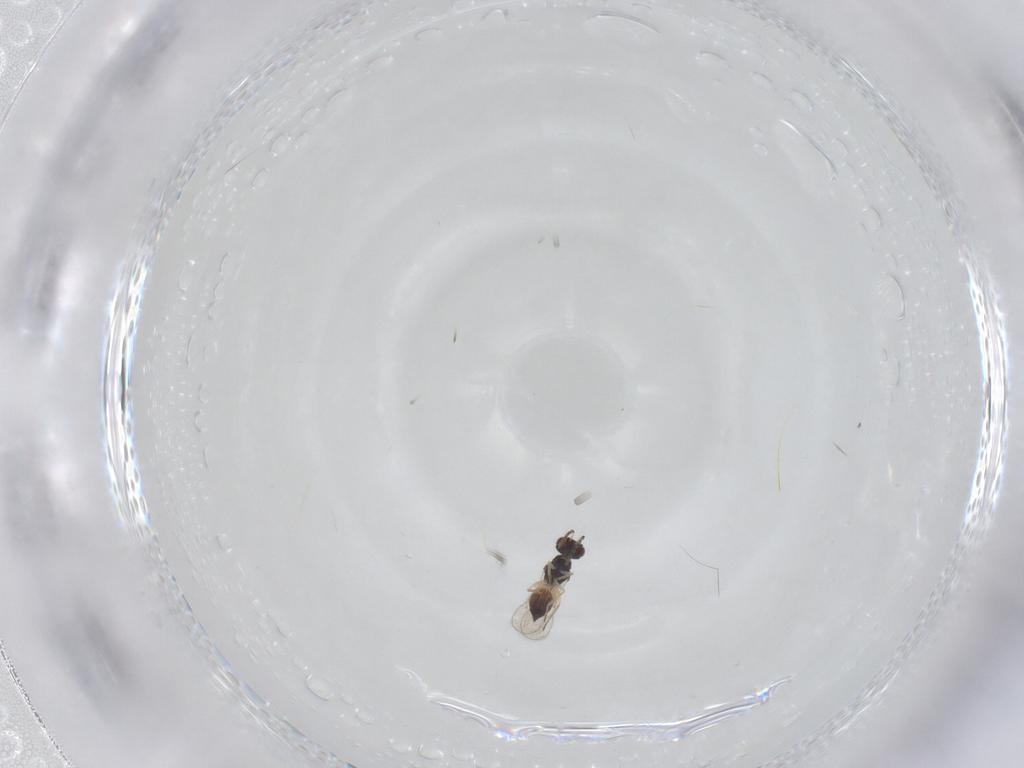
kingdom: Animalia
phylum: Arthropoda
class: Insecta
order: Hymenoptera
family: Eulophidae
